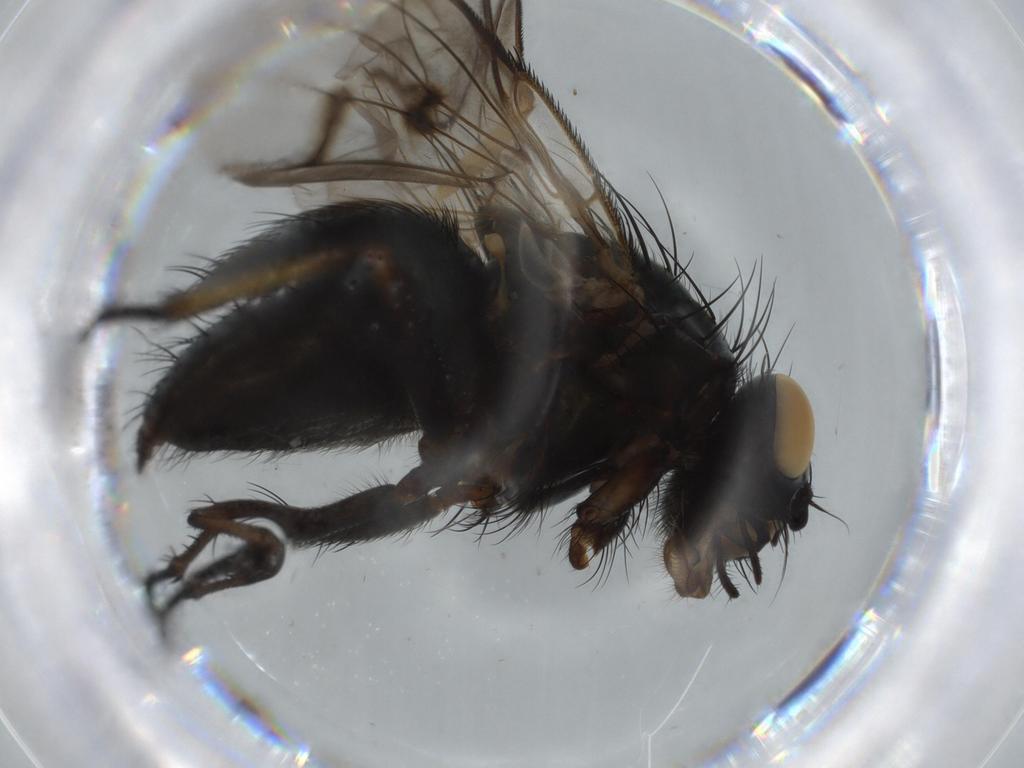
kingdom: Animalia
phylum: Arthropoda
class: Insecta
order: Diptera
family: Muscidae
